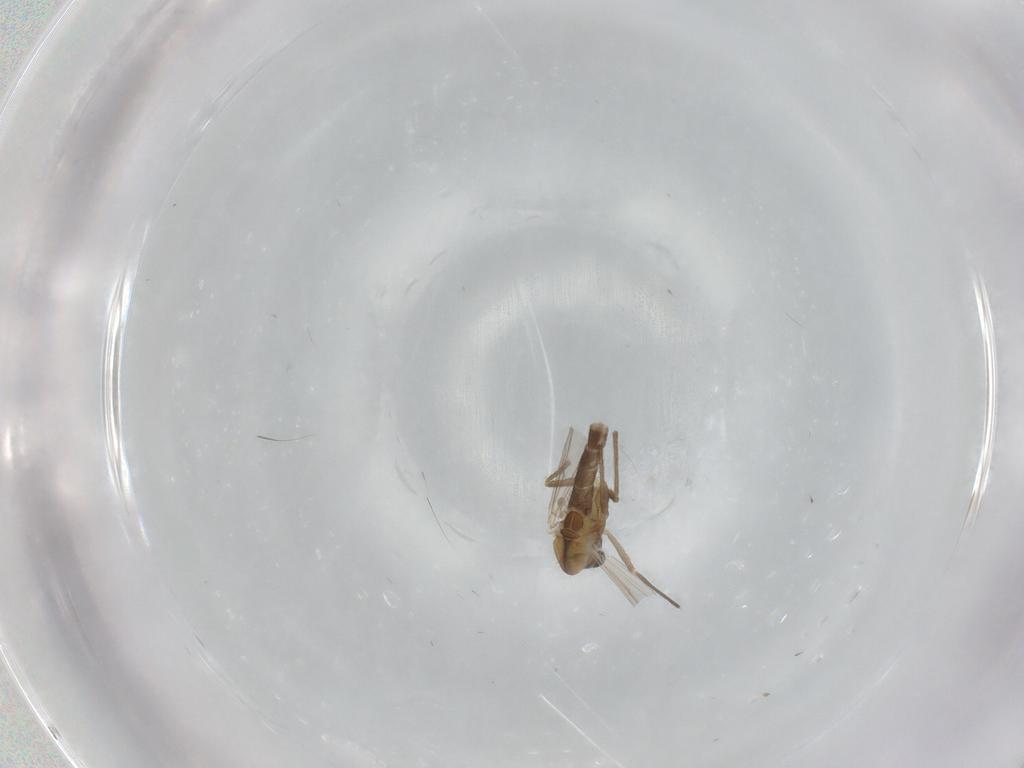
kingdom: Animalia
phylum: Arthropoda
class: Insecta
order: Diptera
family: Chironomidae
